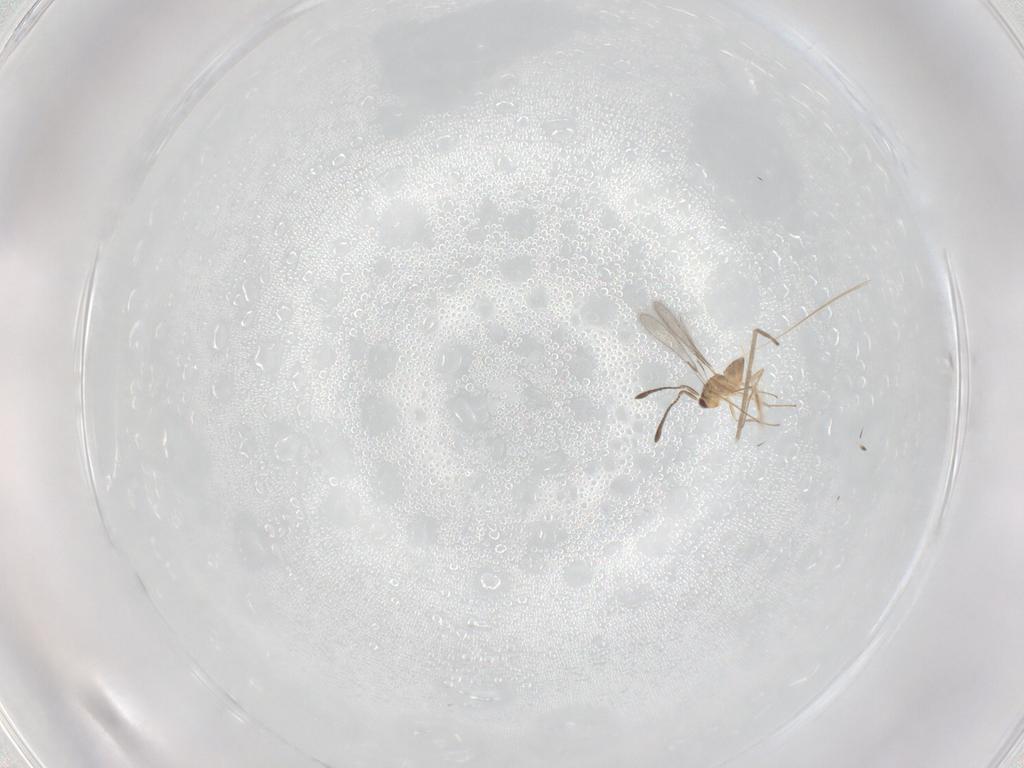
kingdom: Animalia
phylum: Arthropoda
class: Insecta
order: Hymenoptera
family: Mymaridae
